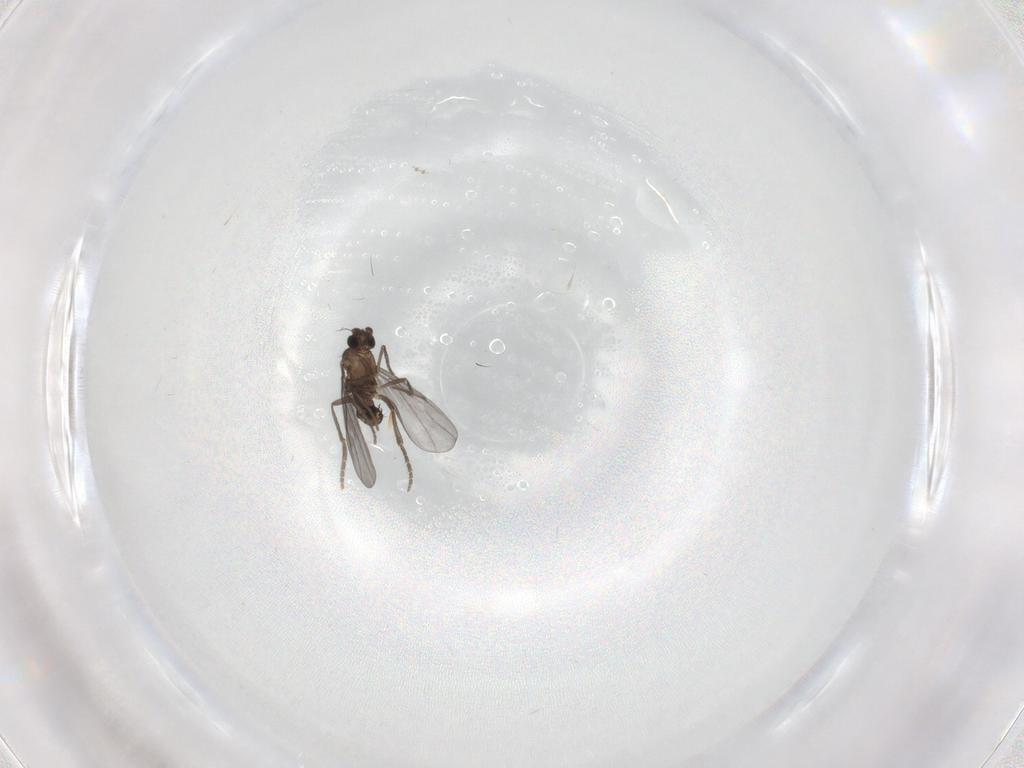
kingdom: Animalia
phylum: Arthropoda
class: Insecta
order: Diptera
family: Phoridae
